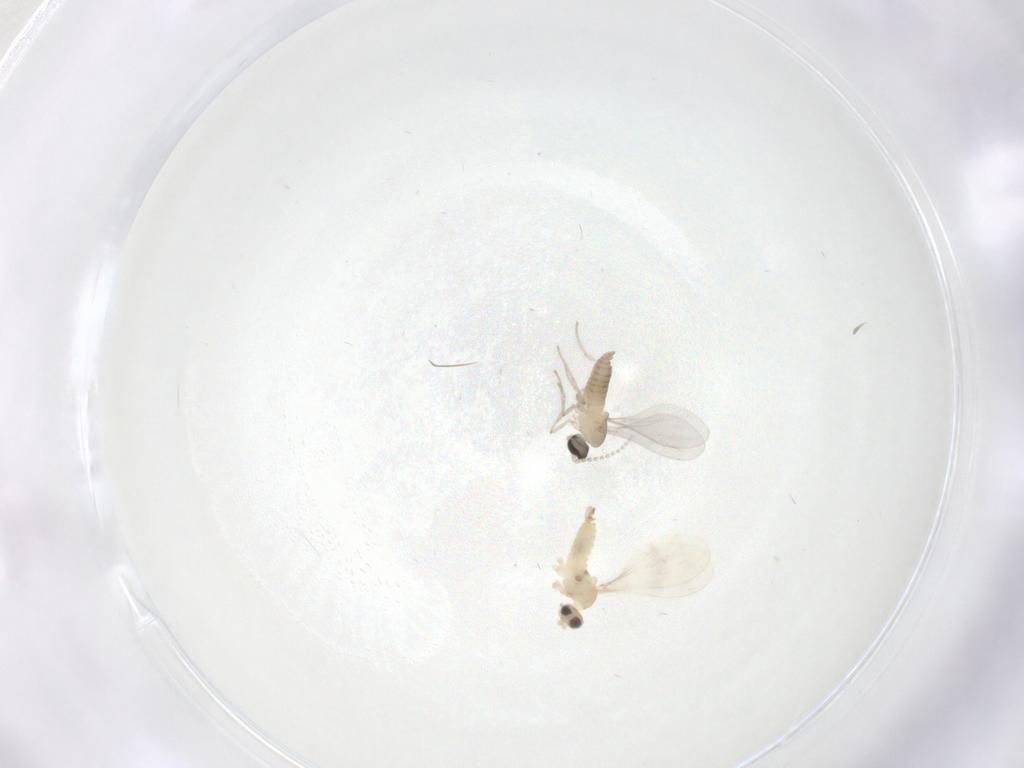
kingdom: Animalia
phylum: Arthropoda
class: Insecta
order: Diptera
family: Cecidomyiidae
